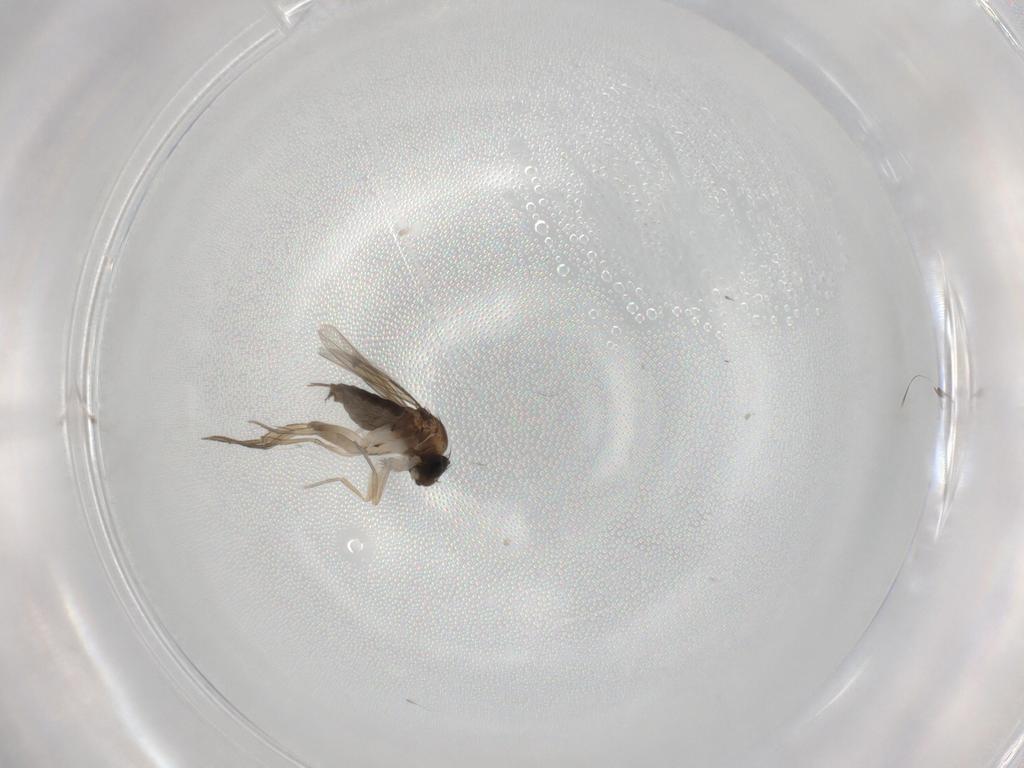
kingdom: Animalia
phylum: Arthropoda
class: Insecta
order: Diptera
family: Phoridae
